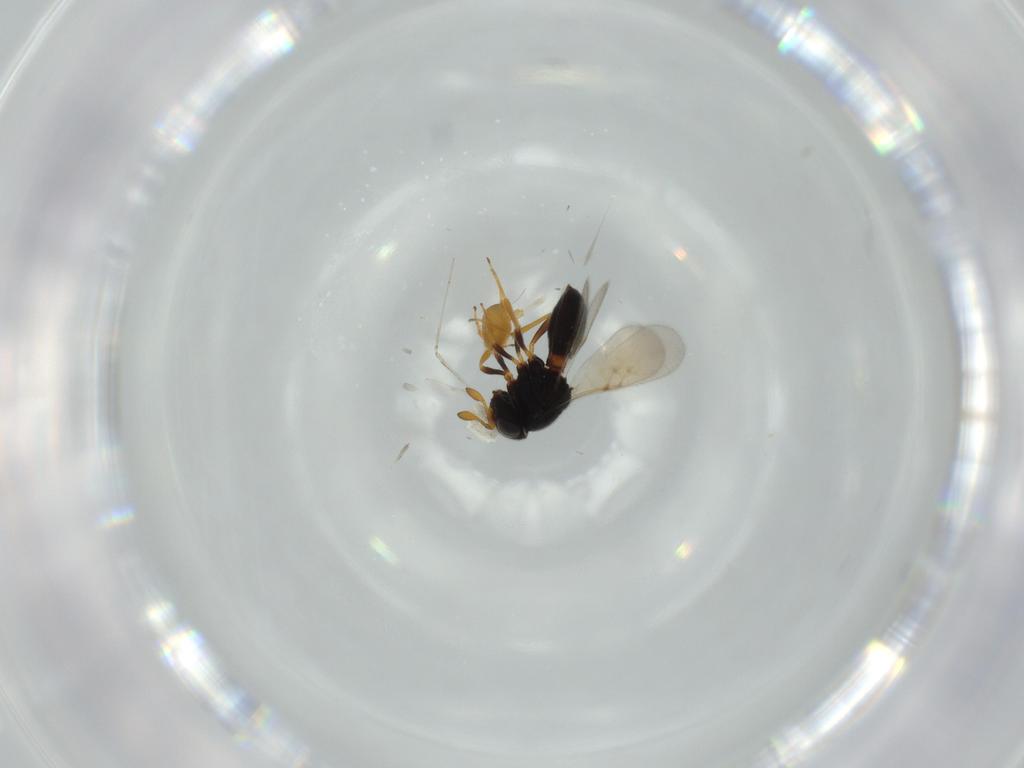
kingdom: Animalia
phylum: Arthropoda
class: Insecta
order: Hymenoptera
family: Scelionidae
